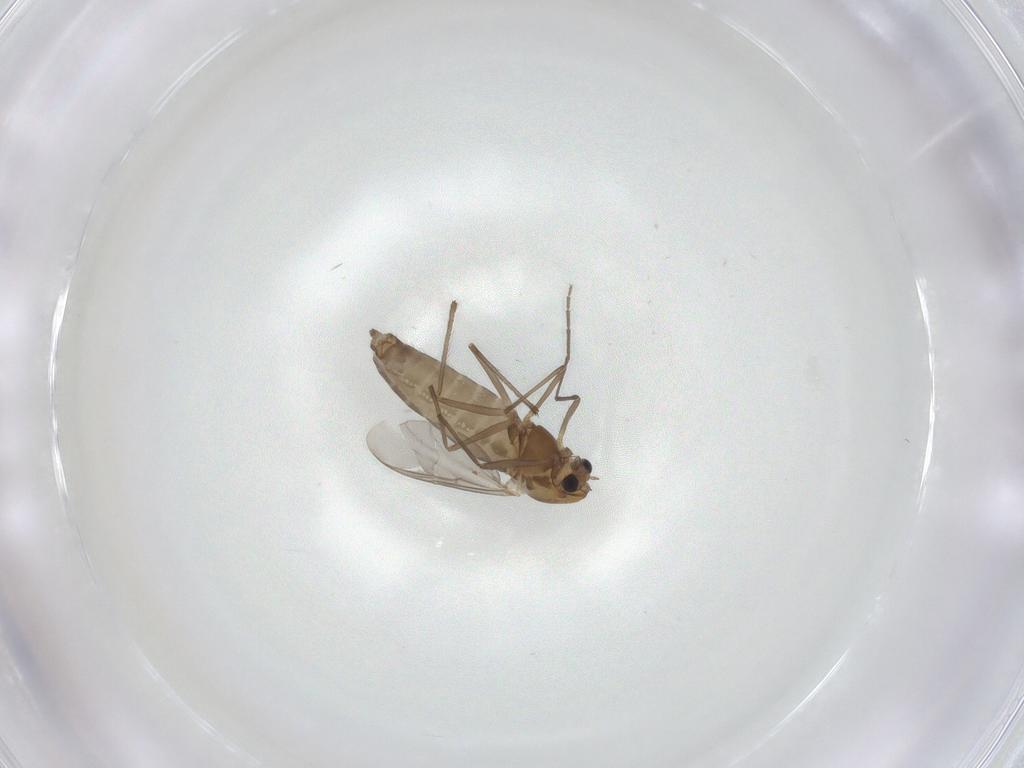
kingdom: Animalia
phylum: Arthropoda
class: Insecta
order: Diptera
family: Chironomidae
